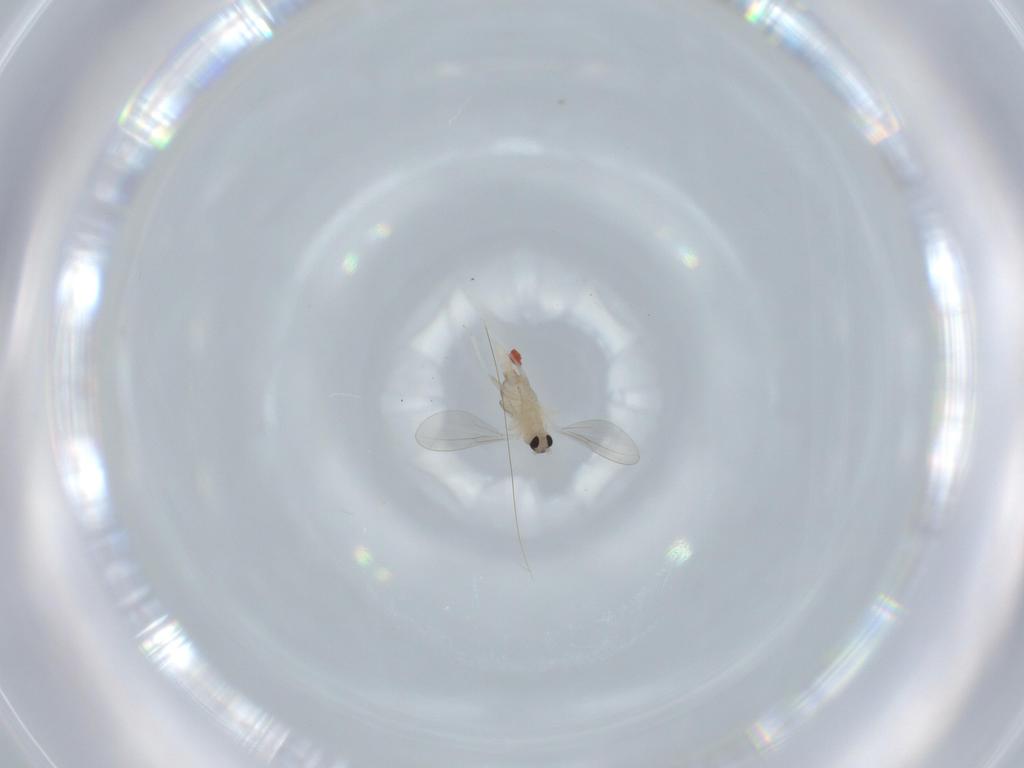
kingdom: Animalia
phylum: Arthropoda
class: Insecta
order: Diptera
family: Cecidomyiidae
